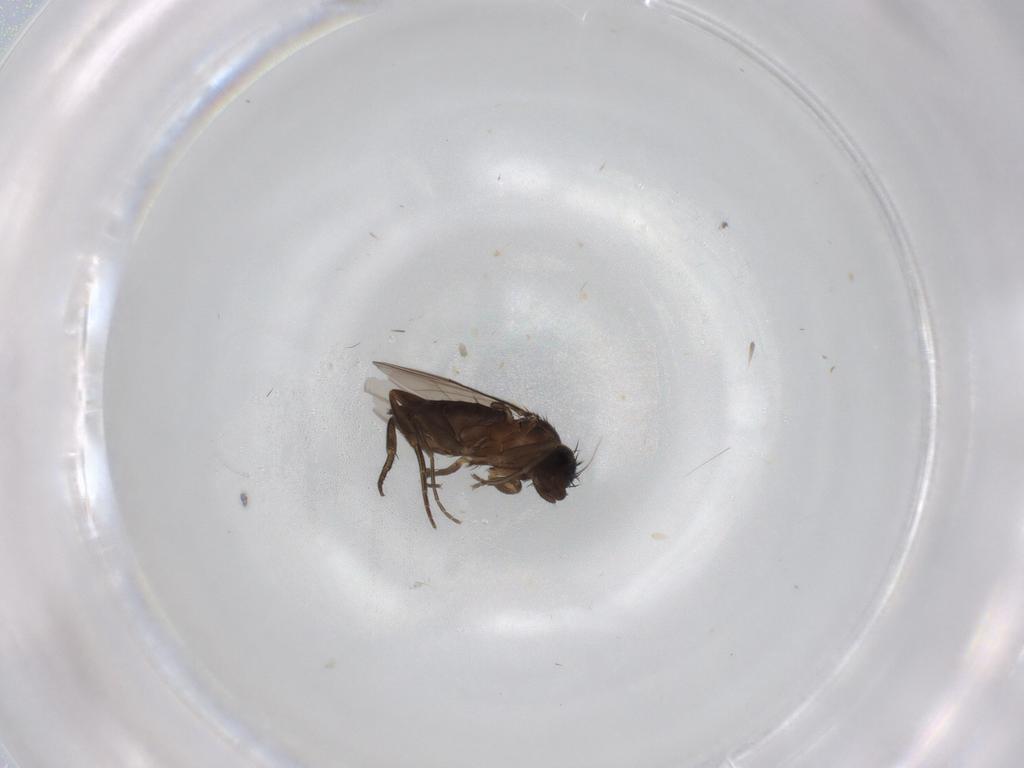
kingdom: Animalia
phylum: Arthropoda
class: Insecta
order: Diptera
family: Phoridae
